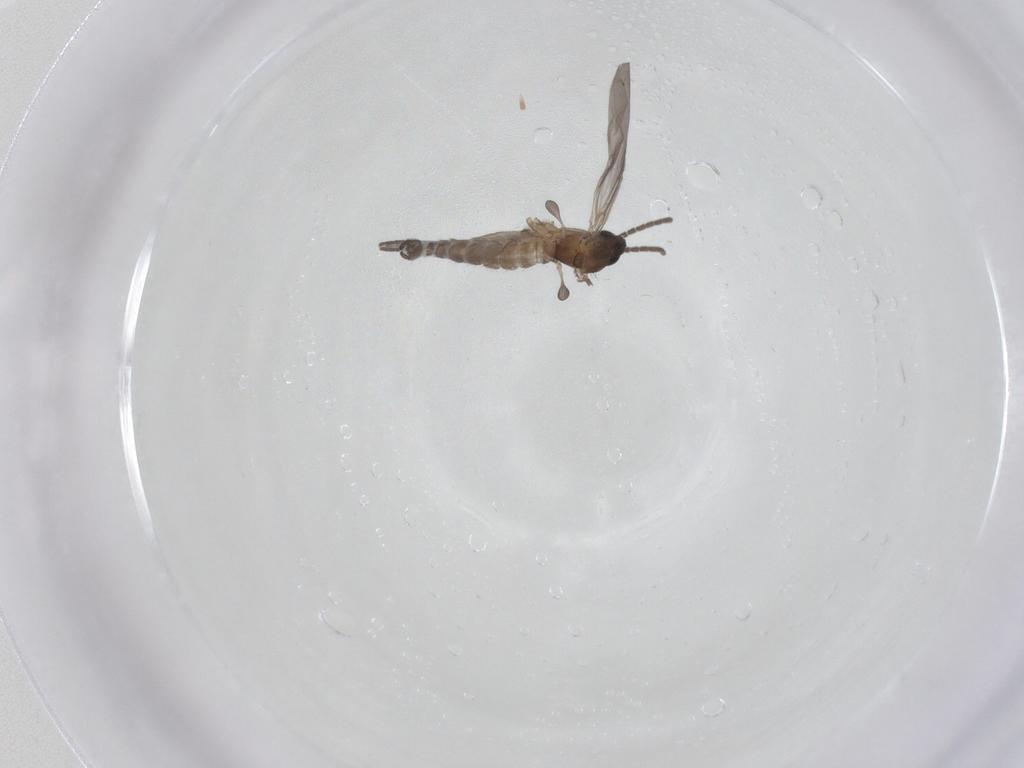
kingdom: Animalia
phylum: Arthropoda
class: Insecta
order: Diptera
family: Sciaridae
